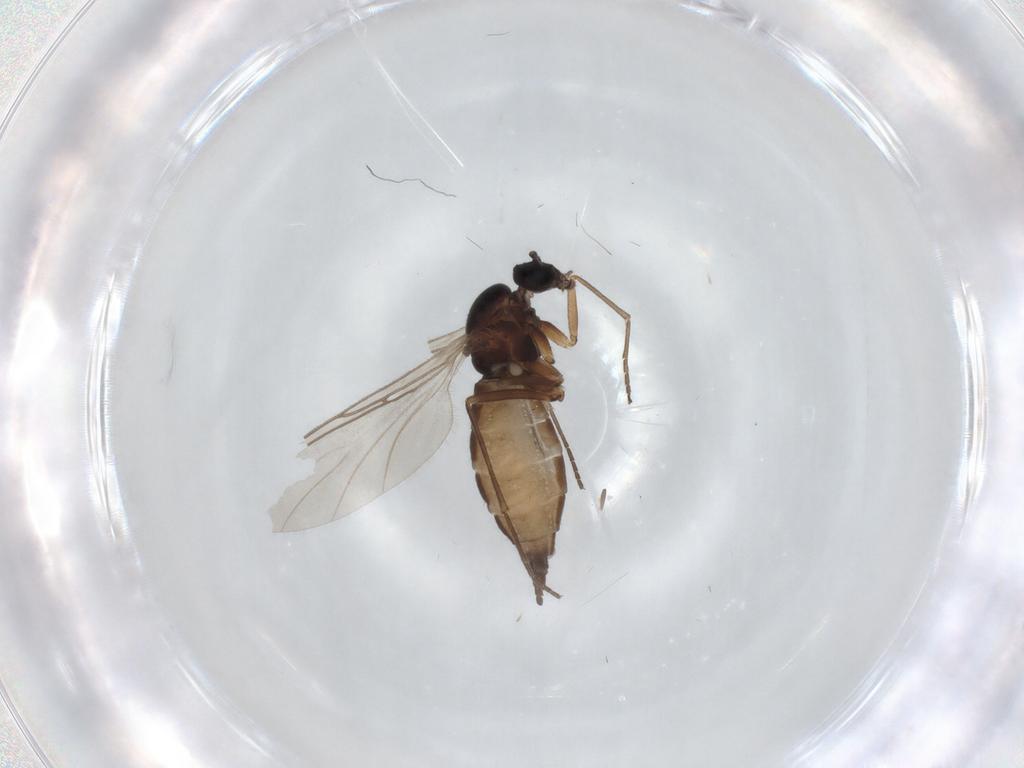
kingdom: Animalia
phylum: Arthropoda
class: Insecta
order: Diptera
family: Sciaridae
